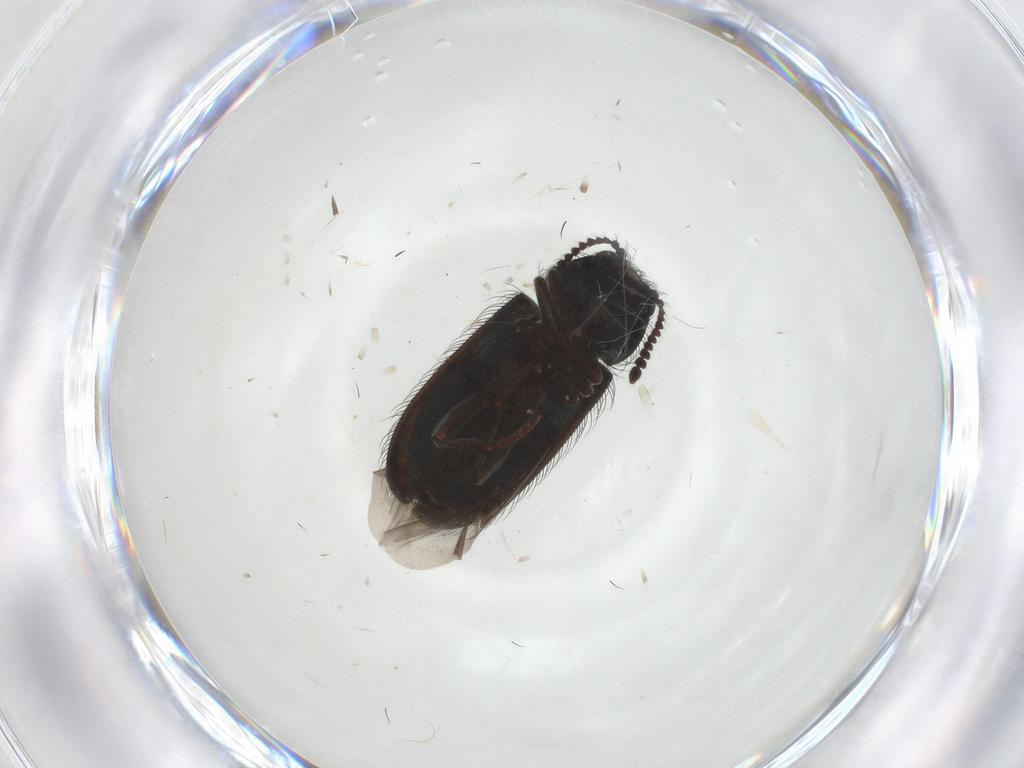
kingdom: Animalia
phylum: Arthropoda
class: Insecta
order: Coleoptera
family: Melyridae
